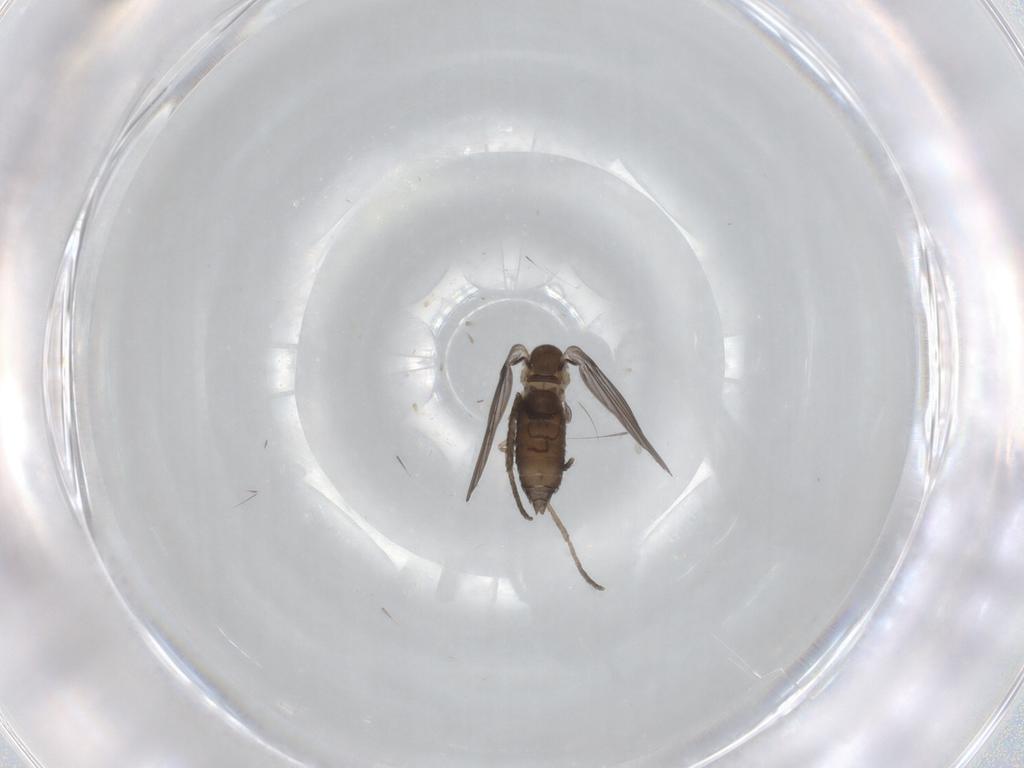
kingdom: Animalia
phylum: Arthropoda
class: Insecta
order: Diptera
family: Psychodidae
